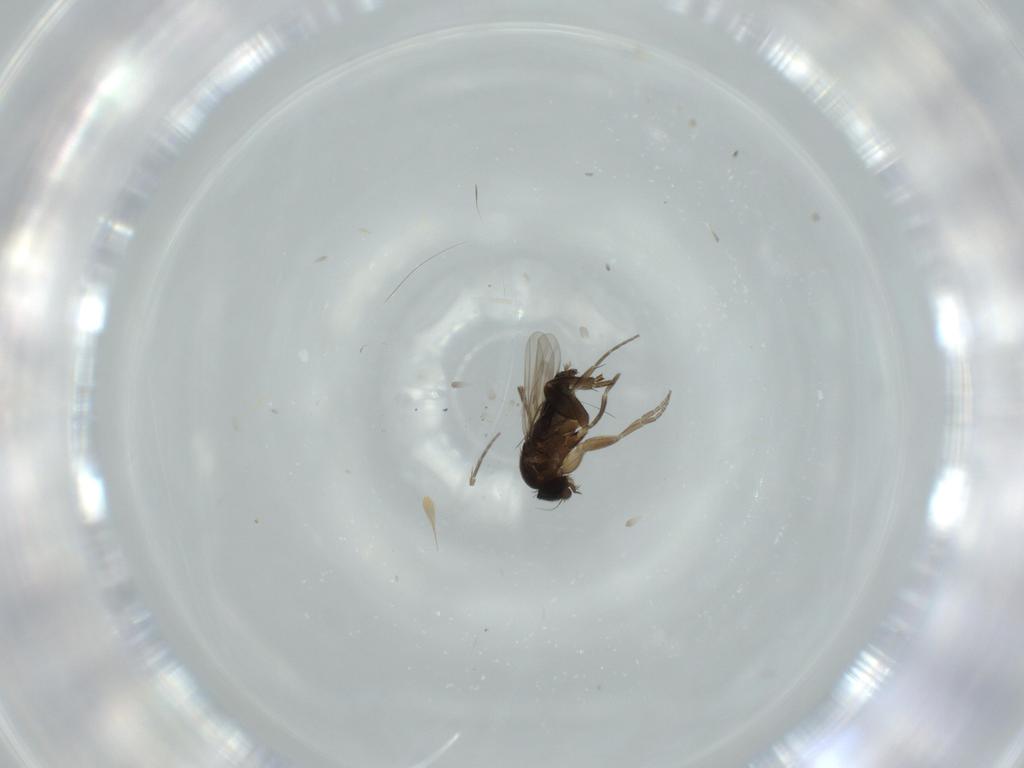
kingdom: Animalia
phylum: Arthropoda
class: Insecta
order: Diptera
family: Phoridae
